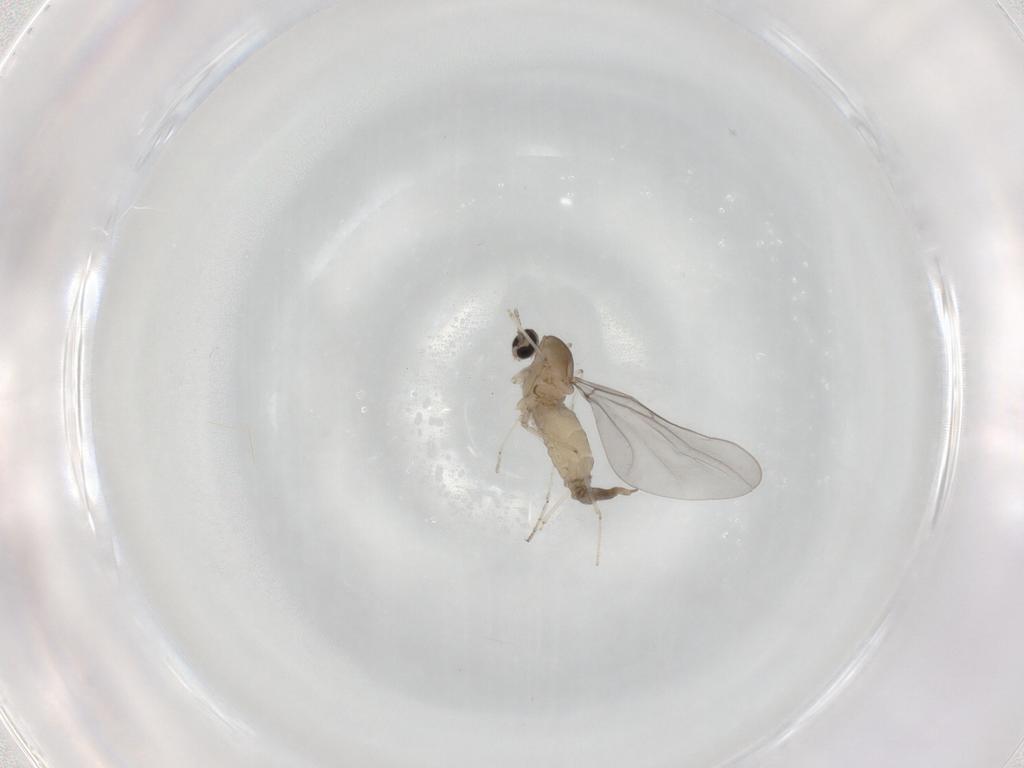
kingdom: Animalia
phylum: Arthropoda
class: Insecta
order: Diptera
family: Cecidomyiidae
